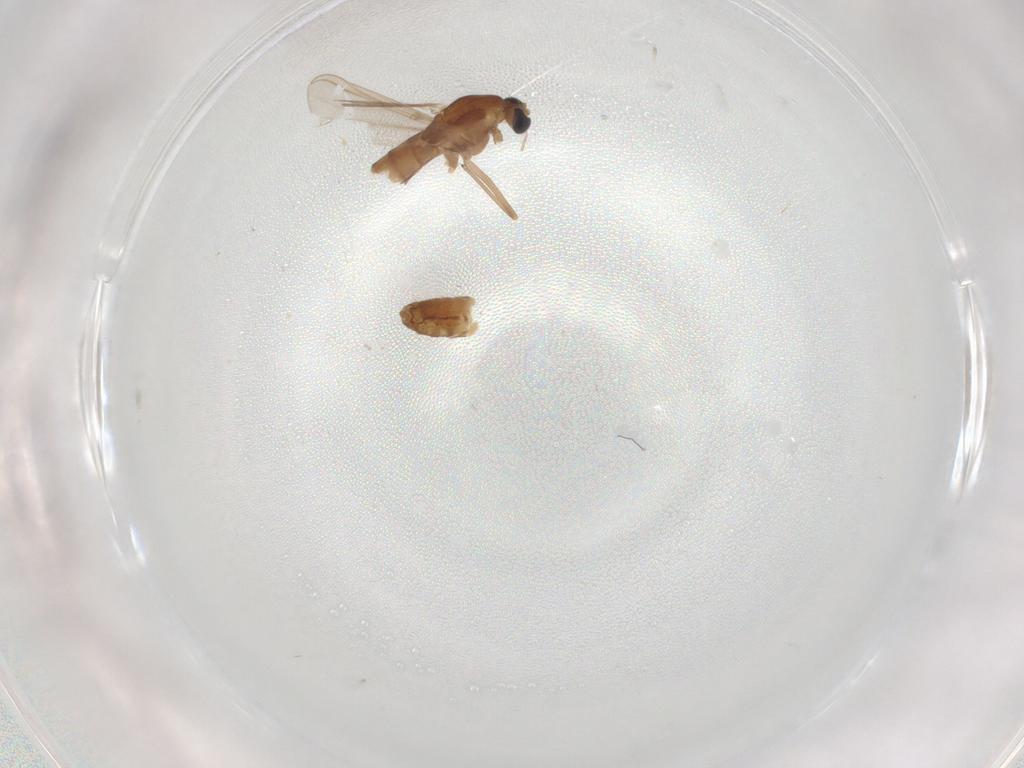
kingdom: Animalia
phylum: Arthropoda
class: Insecta
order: Diptera
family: Chironomidae
